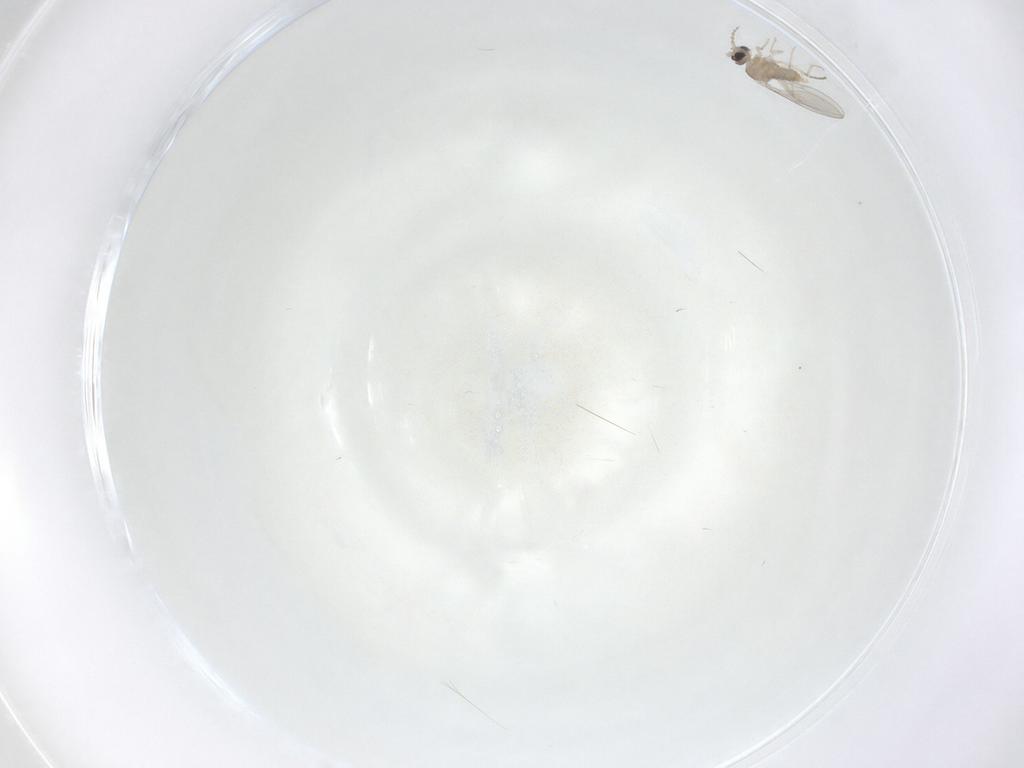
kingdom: Animalia
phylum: Arthropoda
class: Insecta
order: Diptera
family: Cecidomyiidae
